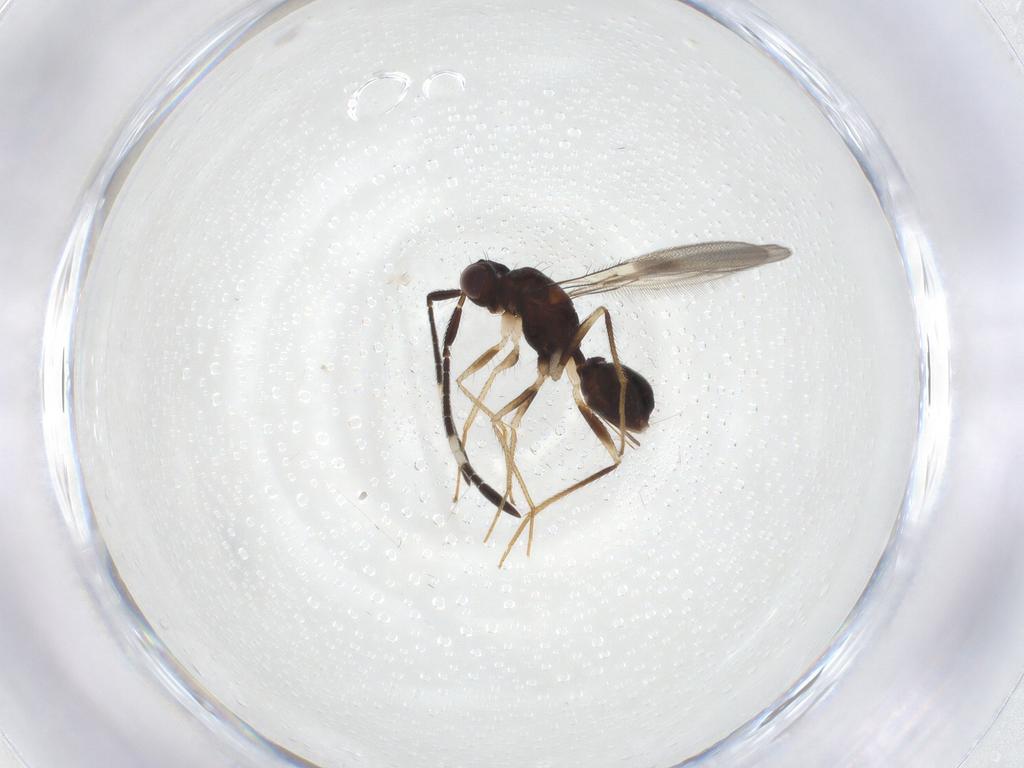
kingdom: Animalia
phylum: Arthropoda
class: Insecta
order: Hymenoptera
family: Mymaridae
